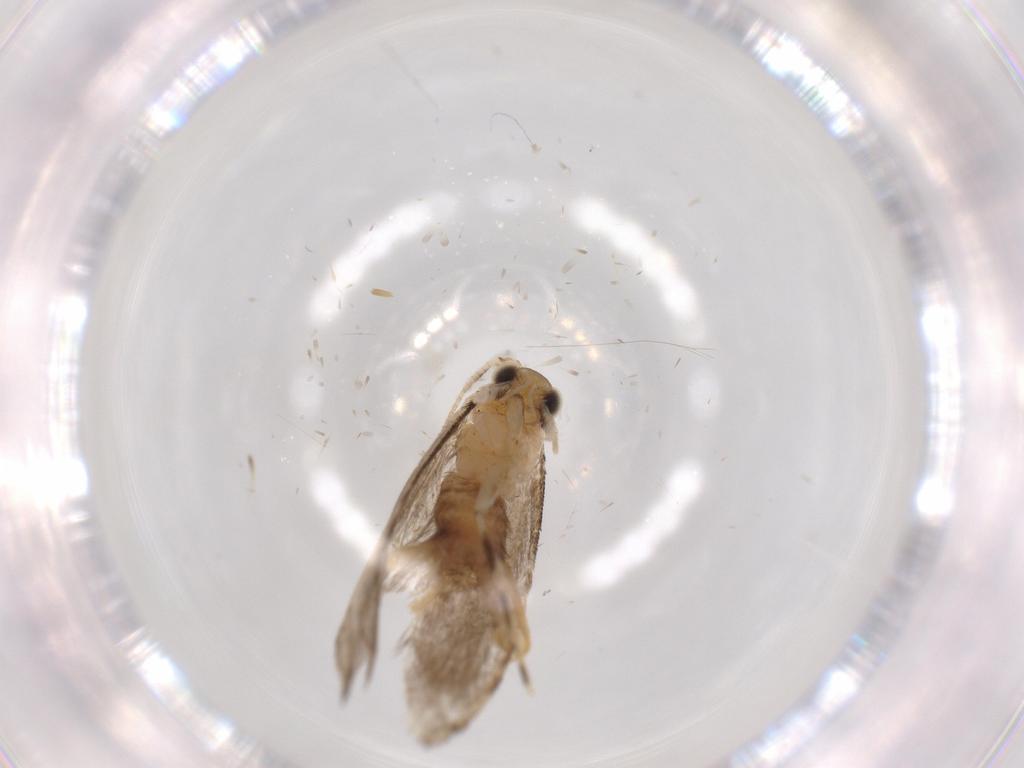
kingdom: Animalia
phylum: Arthropoda
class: Insecta
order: Lepidoptera
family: Tineidae
